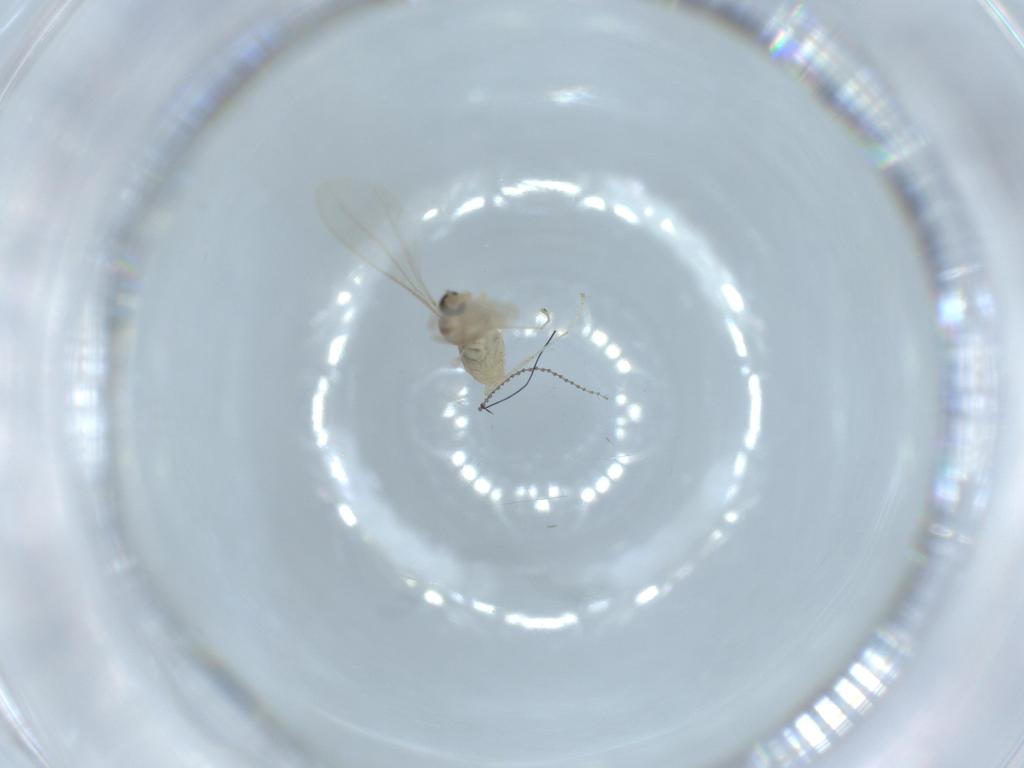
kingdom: Animalia
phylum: Arthropoda
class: Insecta
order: Diptera
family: Cecidomyiidae
